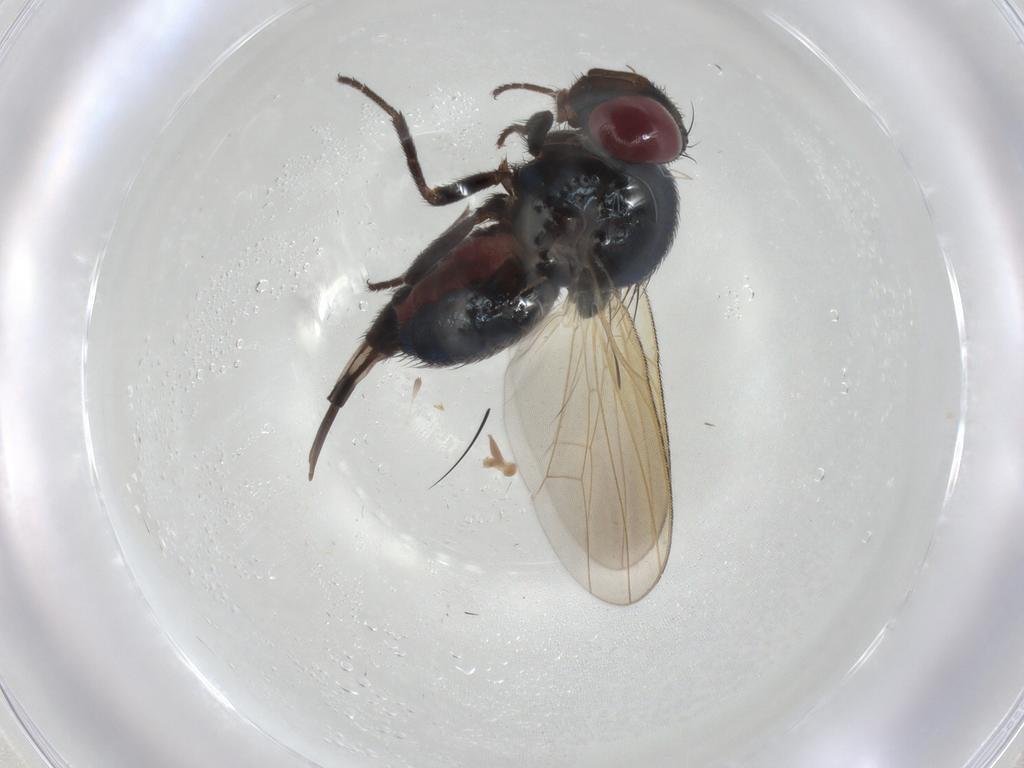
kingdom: Animalia
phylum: Arthropoda
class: Insecta
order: Diptera
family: Lonchaeidae
